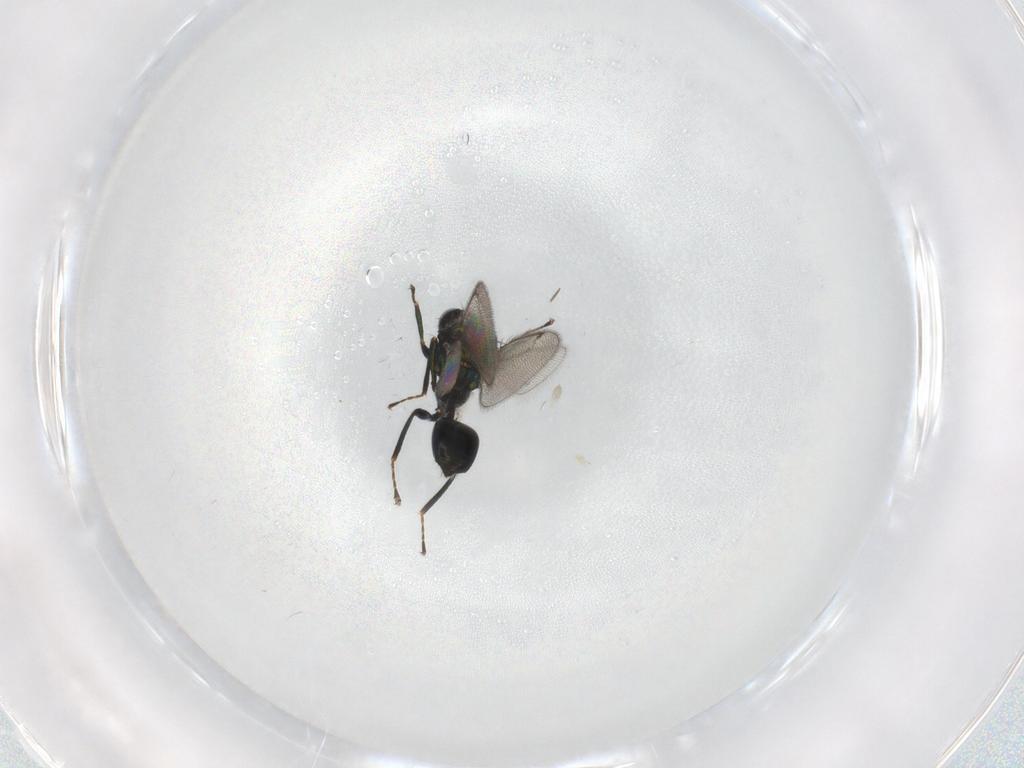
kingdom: Animalia
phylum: Arthropoda
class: Insecta
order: Hymenoptera
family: Eulophidae
